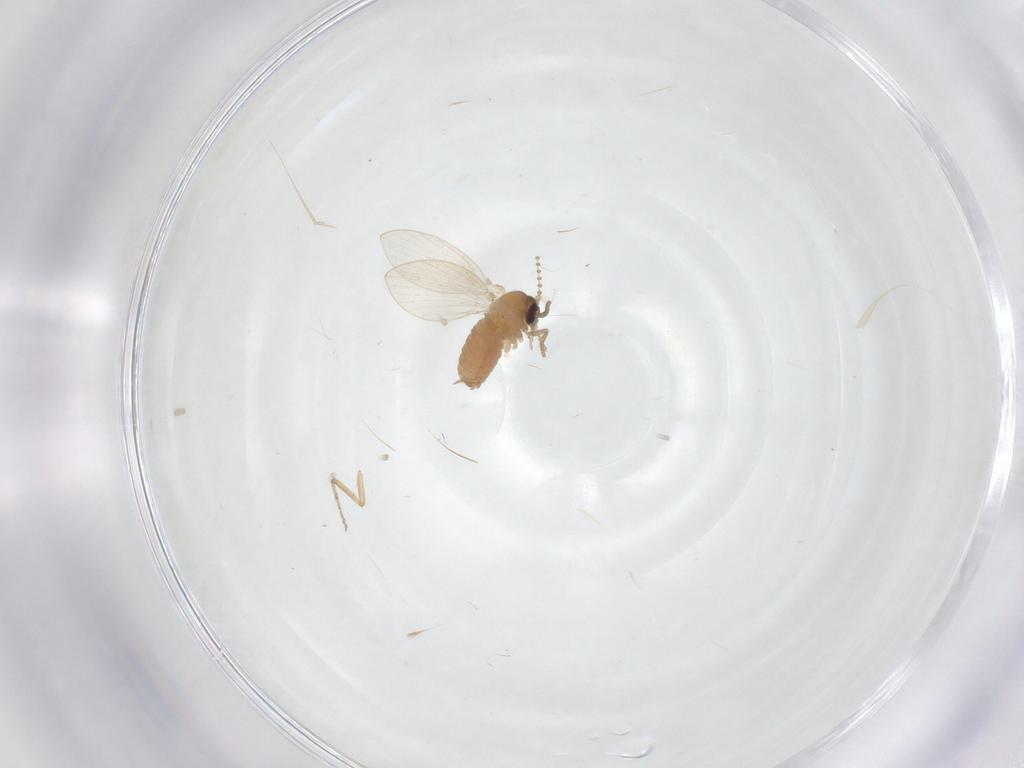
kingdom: Animalia
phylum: Arthropoda
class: Insecta
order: Diptera
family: Psychodidae
